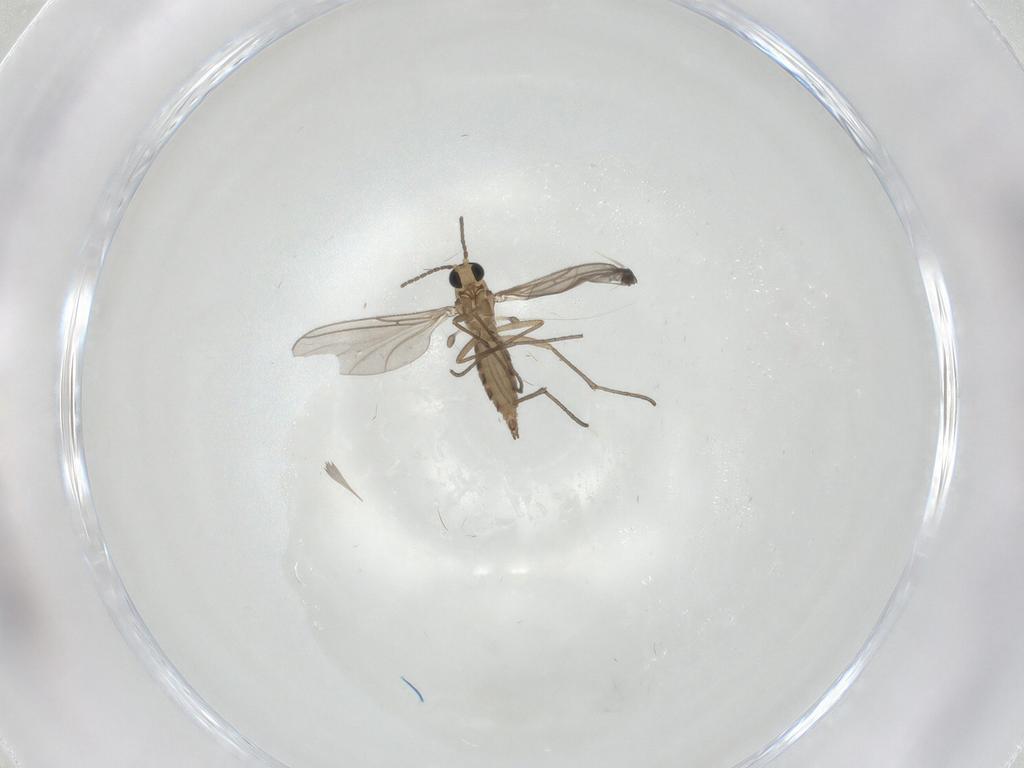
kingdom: Animalia
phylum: Arthropoda
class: Insecta
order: Diptera
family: Sciaridae
